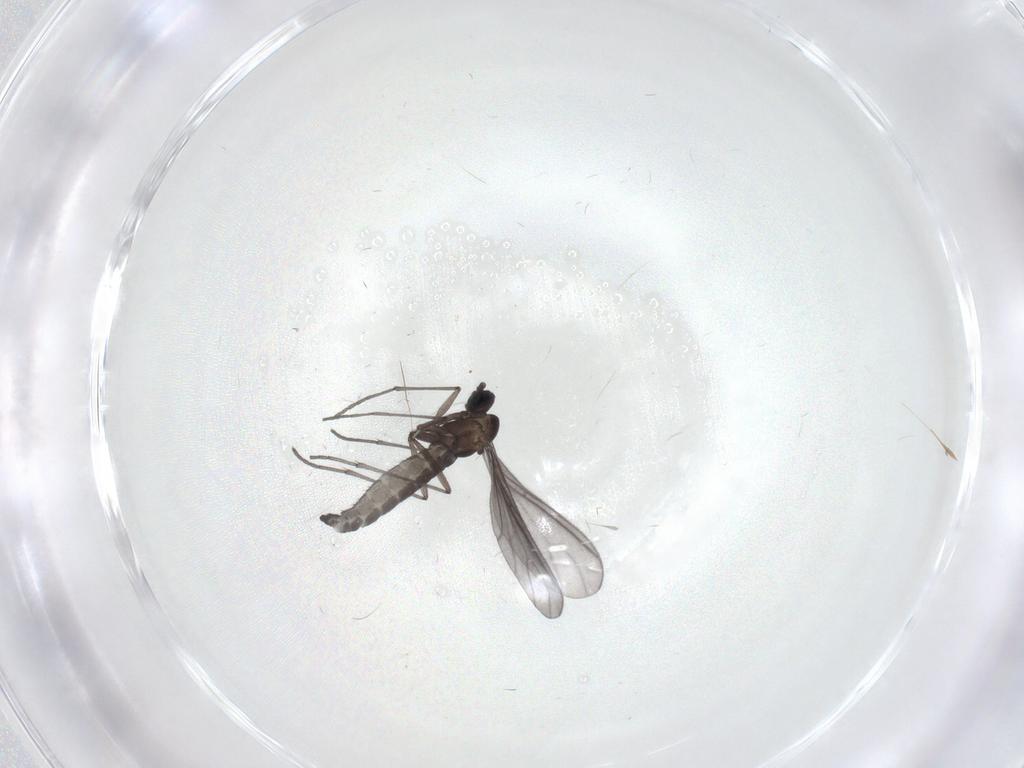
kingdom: Animalia
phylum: Arthropoda
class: Insecta
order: Diptera
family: Sciaridae
